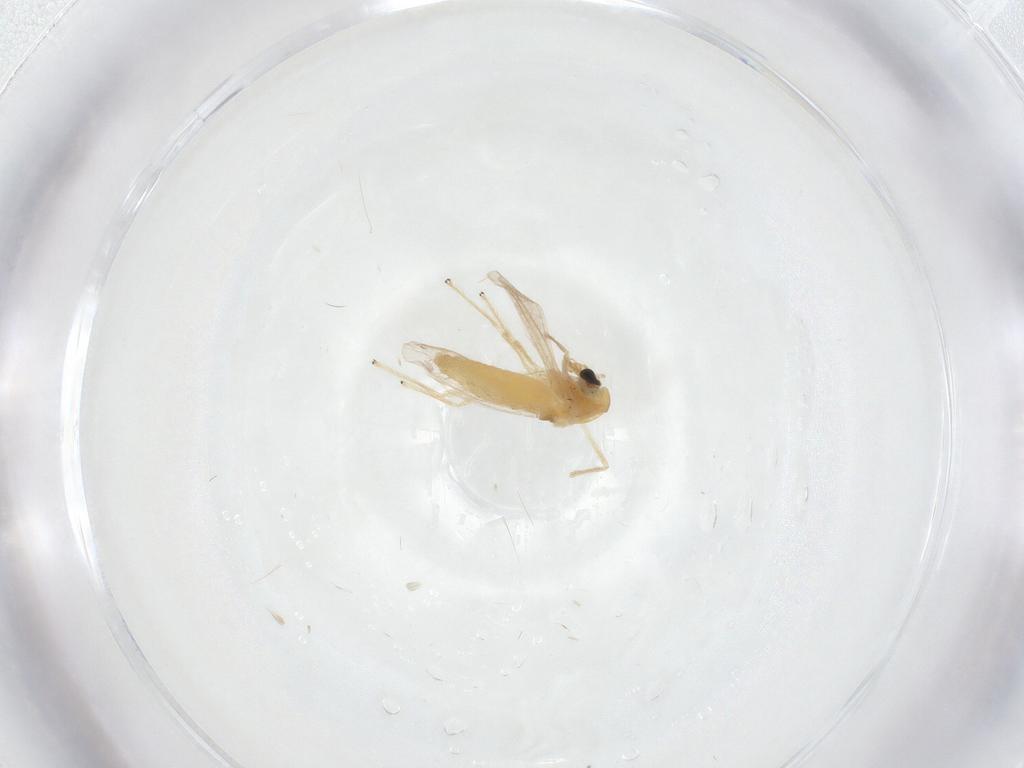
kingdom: Animalia
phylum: Arthropoda
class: Insecta
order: Diptera
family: Chironomidae
